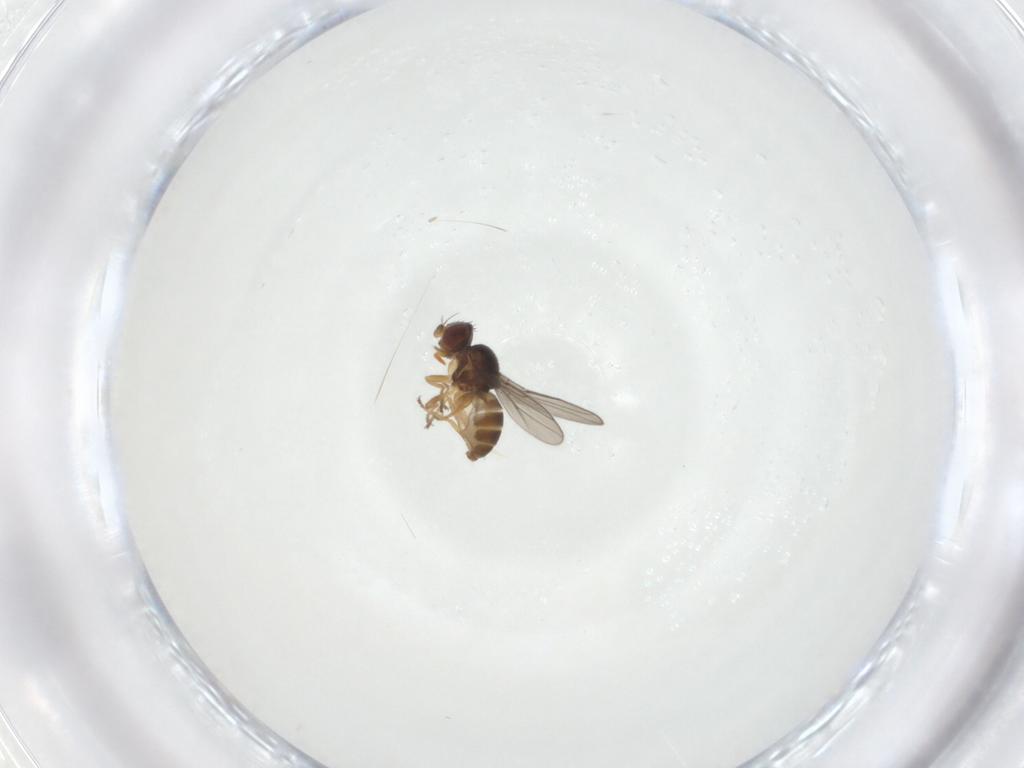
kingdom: Animalia
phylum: Arthropoda
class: Insecta
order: Diptera
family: Chloropidae
